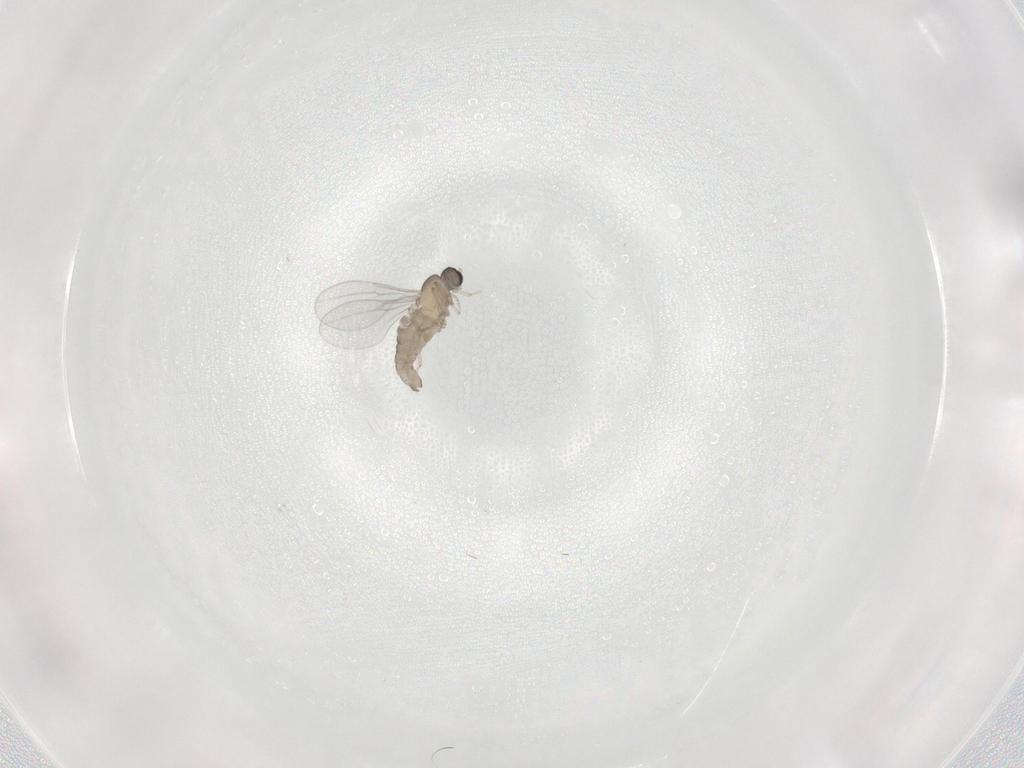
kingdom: Animalia
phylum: Arthropoda
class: Insecta
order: Diptera
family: Cecidomyiidae
